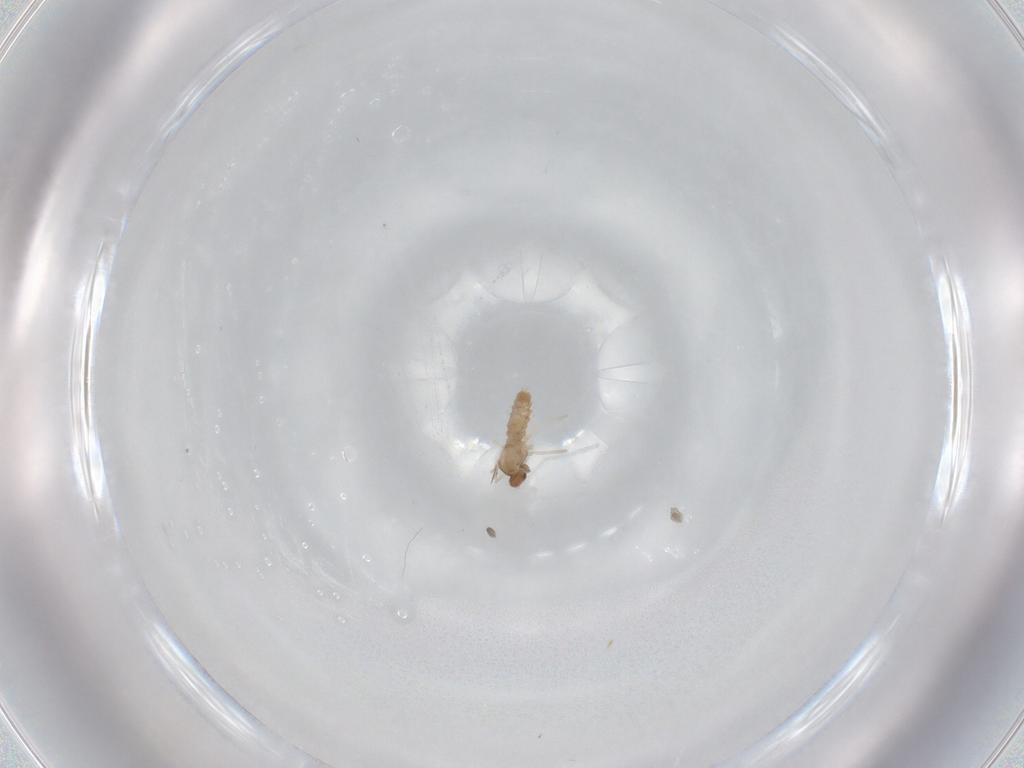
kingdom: Animalia
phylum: Arthropoda
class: Insecta
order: Diptera
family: Cecidomyiidae
